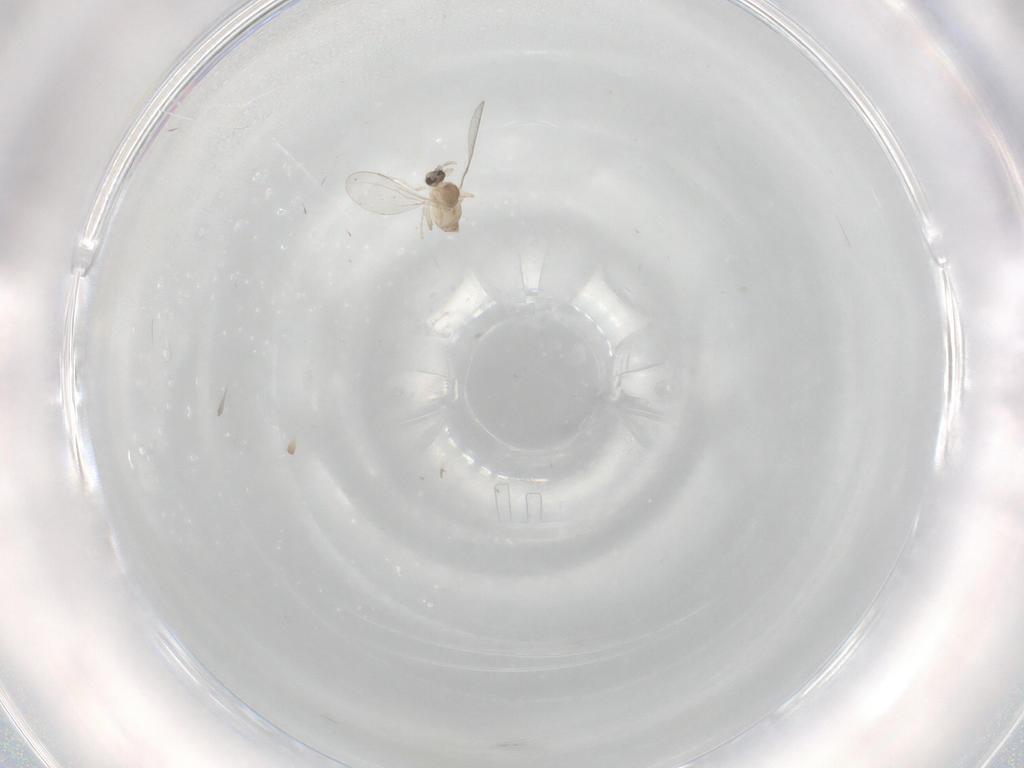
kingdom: Animalia
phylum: Arthropoda
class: Insecta
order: Diptera
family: Cecidomyiidae
